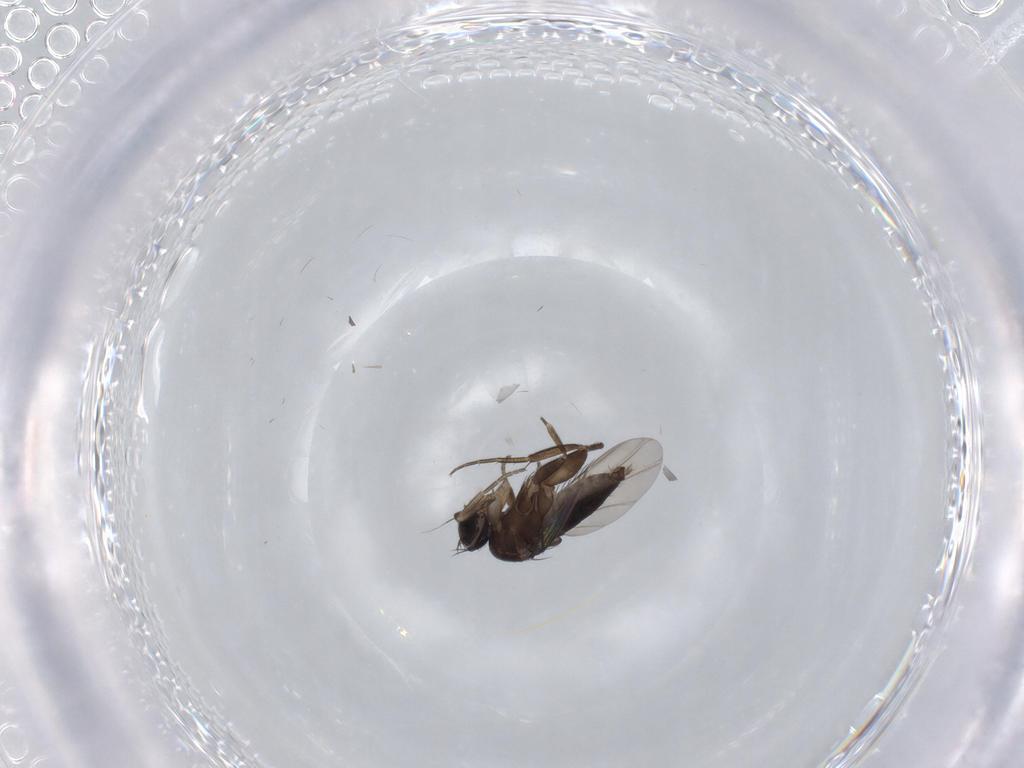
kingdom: Animalia
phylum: Arthropoda
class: Insecta
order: Diptera
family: Phoridae
